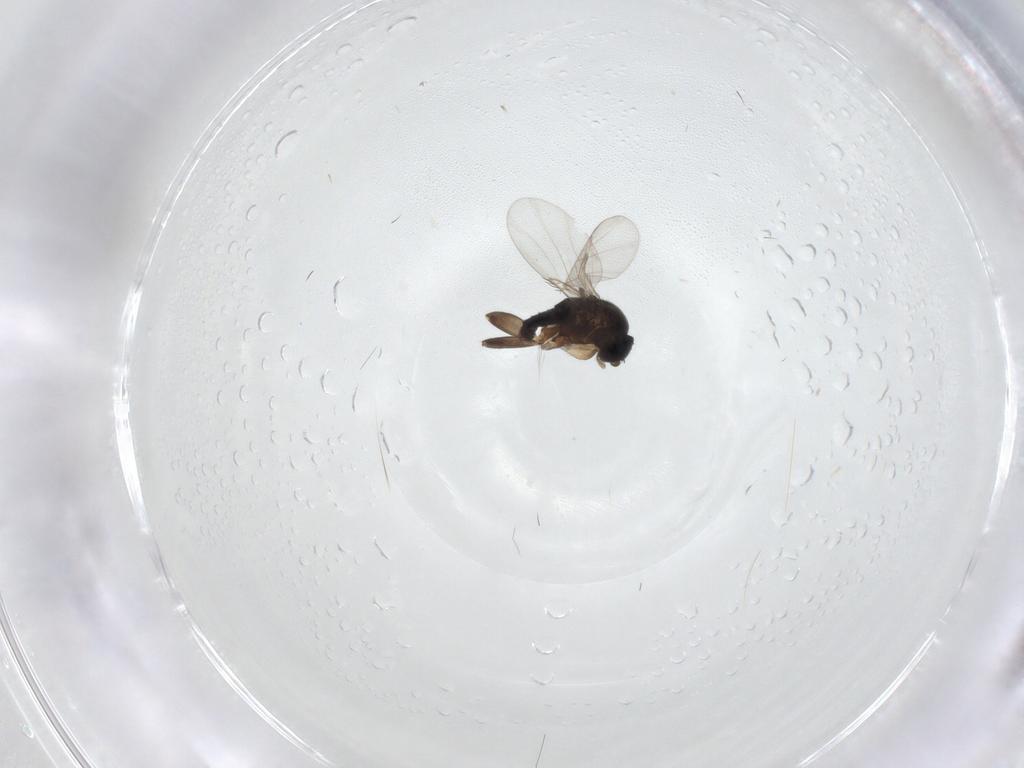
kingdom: Animalia
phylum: Arthropoda
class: Insecta
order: Diptera
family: Phoridae
